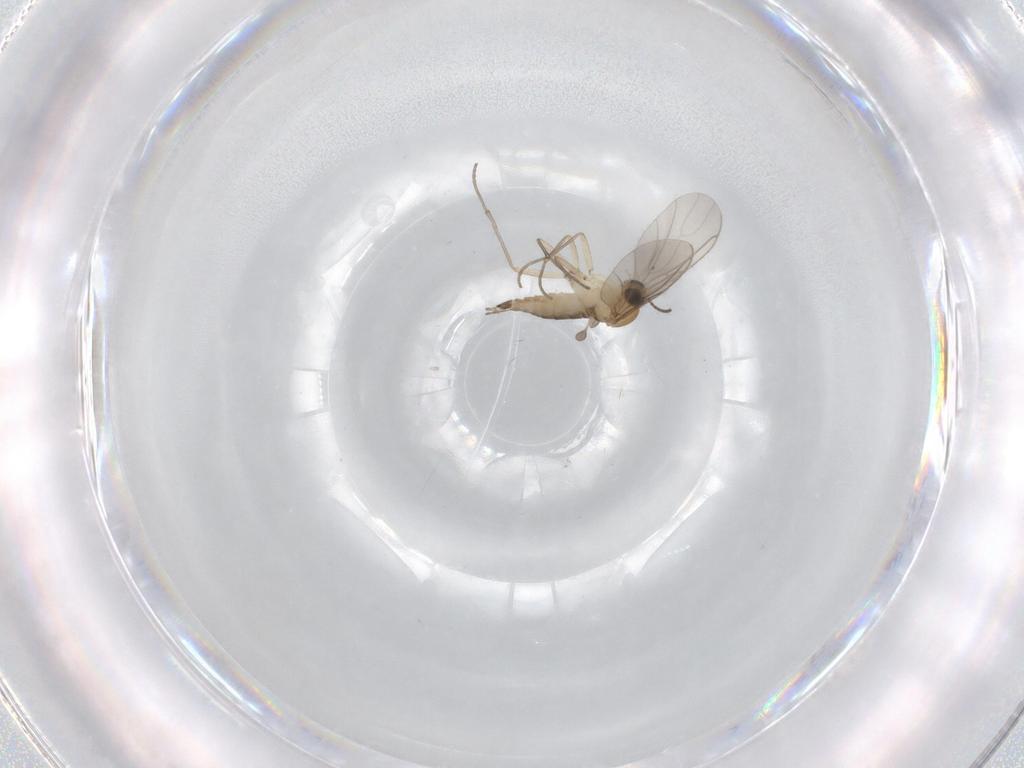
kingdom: Animalia
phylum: Arthropoda
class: Insecta
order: Diptera
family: Sciaridae
